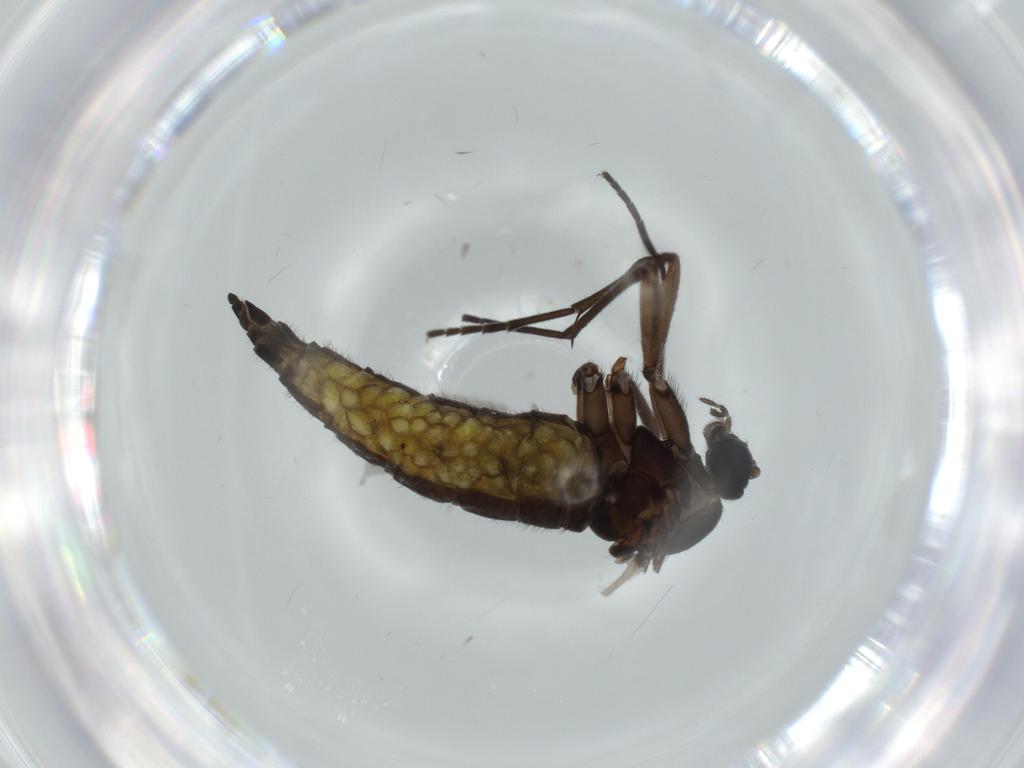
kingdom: Animalia
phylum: Arthropoda
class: Insecta
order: Diptera
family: Sciaridae
